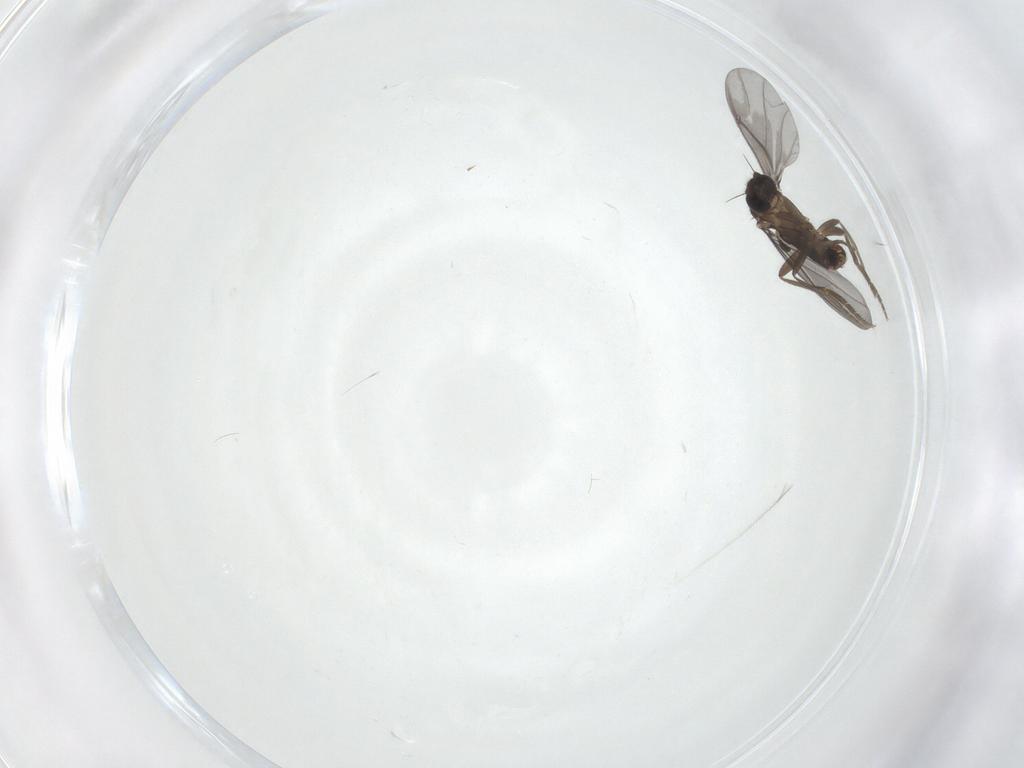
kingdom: Animalia
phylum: Arthropoda
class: Insecta
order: Diptera
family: Phoridae
